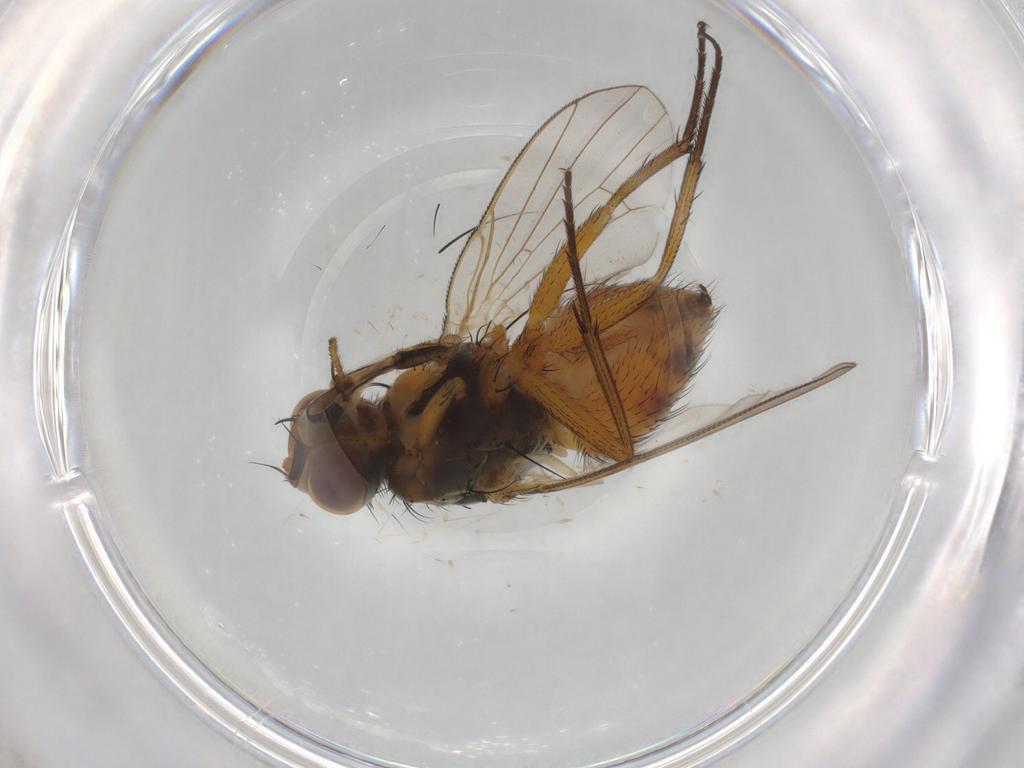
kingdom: Animalia
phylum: Arthropoda
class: Insecta
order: Diptera
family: Muscidae
